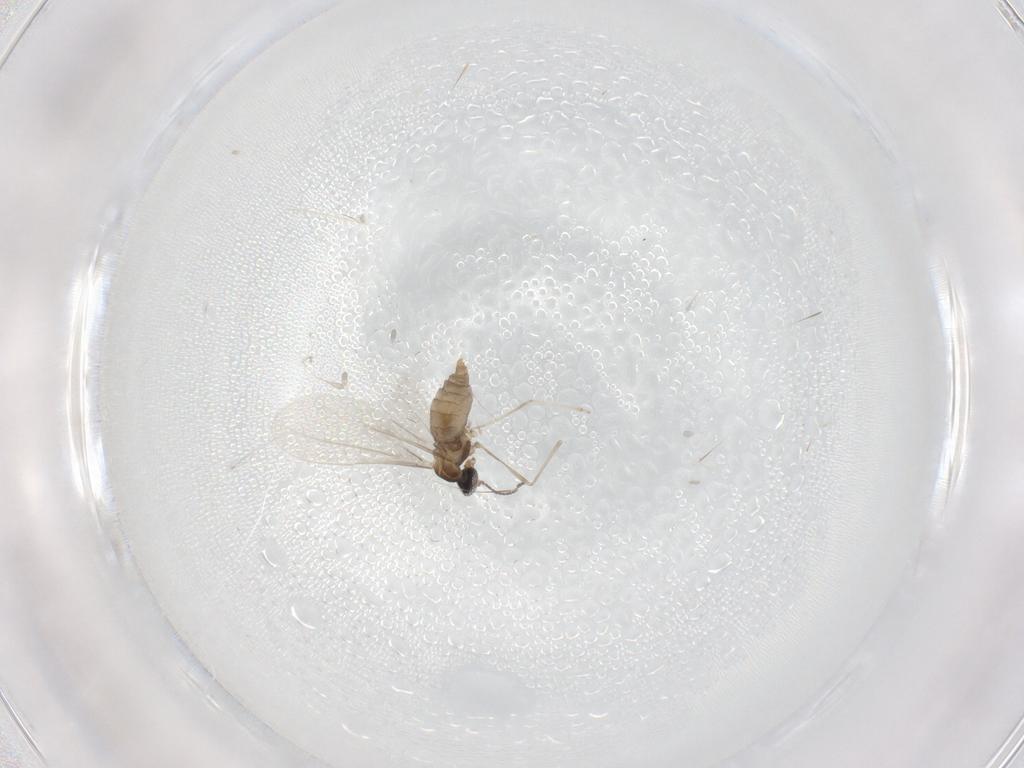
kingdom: Animalia
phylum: Arthropoda
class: Insecta
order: Diptera
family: Cecidomyiidae
